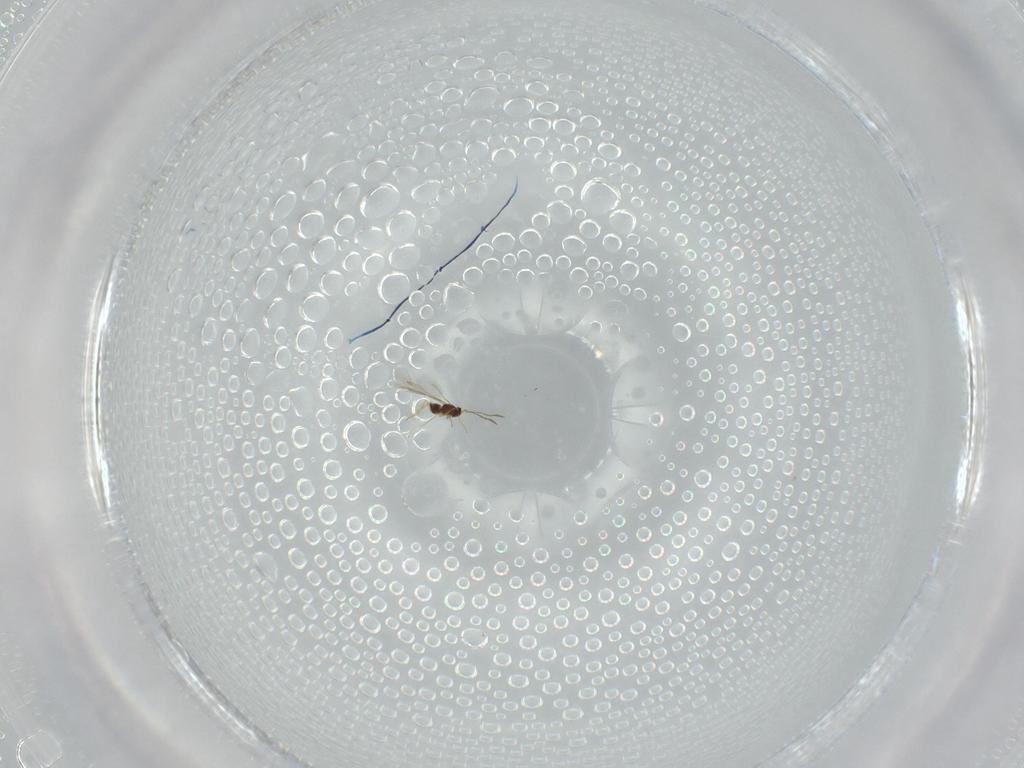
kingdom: Animalia
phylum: Arthropoda
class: Insecta
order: Hymenoptera
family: Mymaridae
